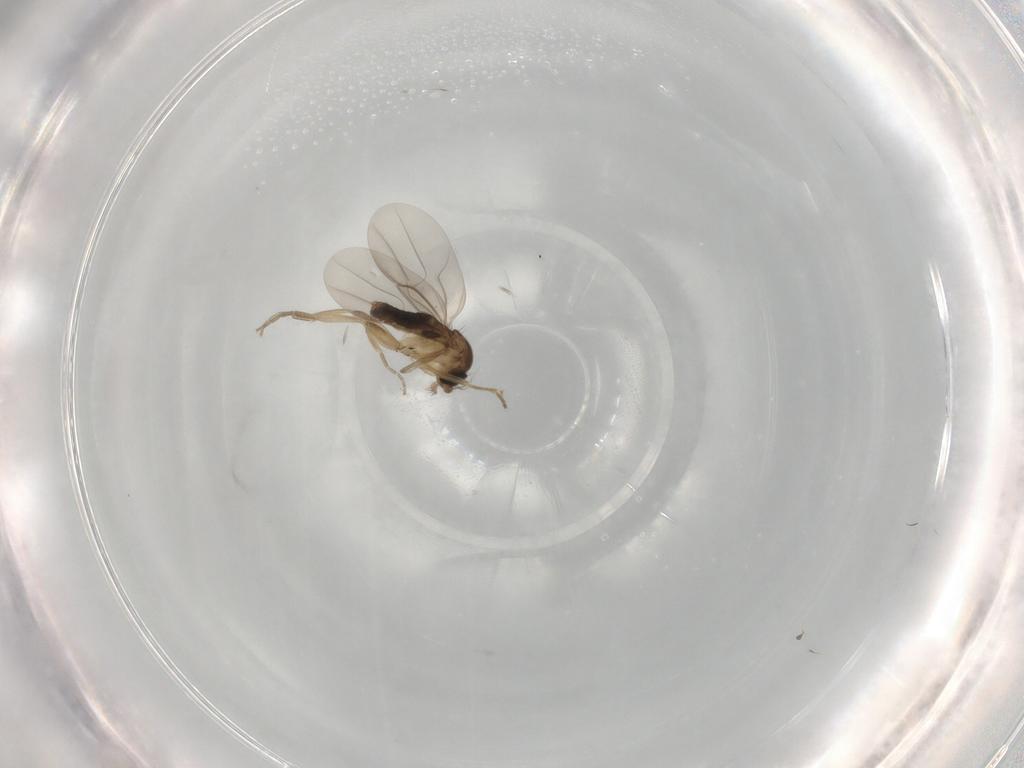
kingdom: Animalia
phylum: Arthropoda
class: Insecta
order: Diptera
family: Phoridae
